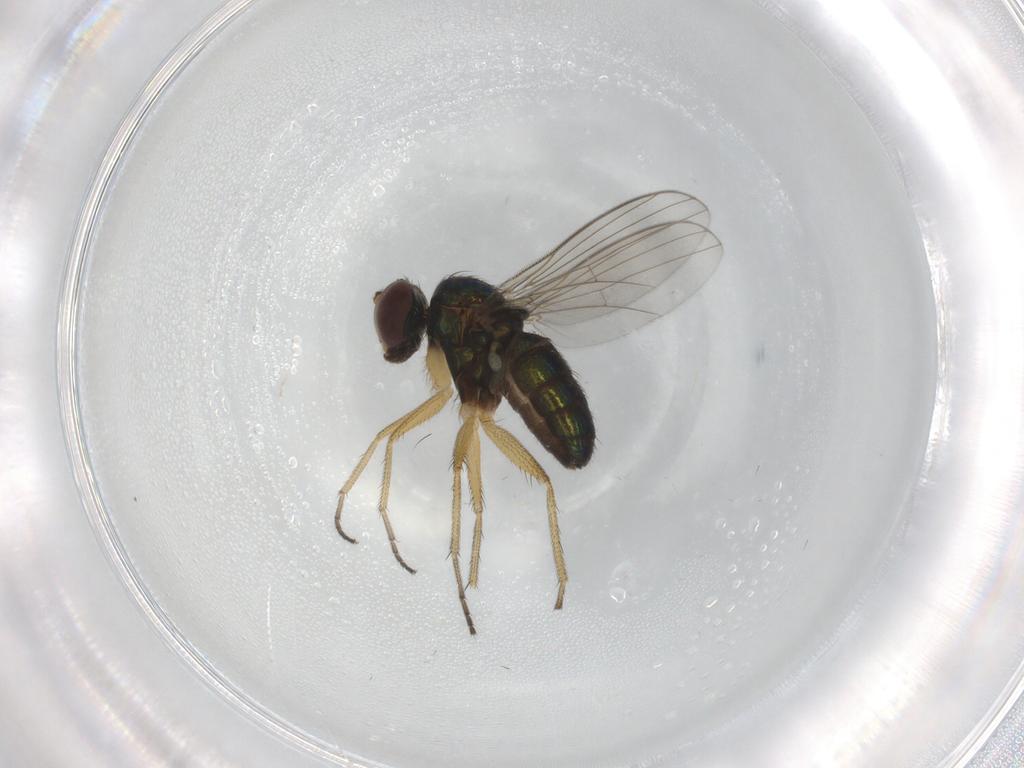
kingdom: Animalia
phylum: Arthropoda
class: Insecta
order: Diptera
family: Dolichopodidae
